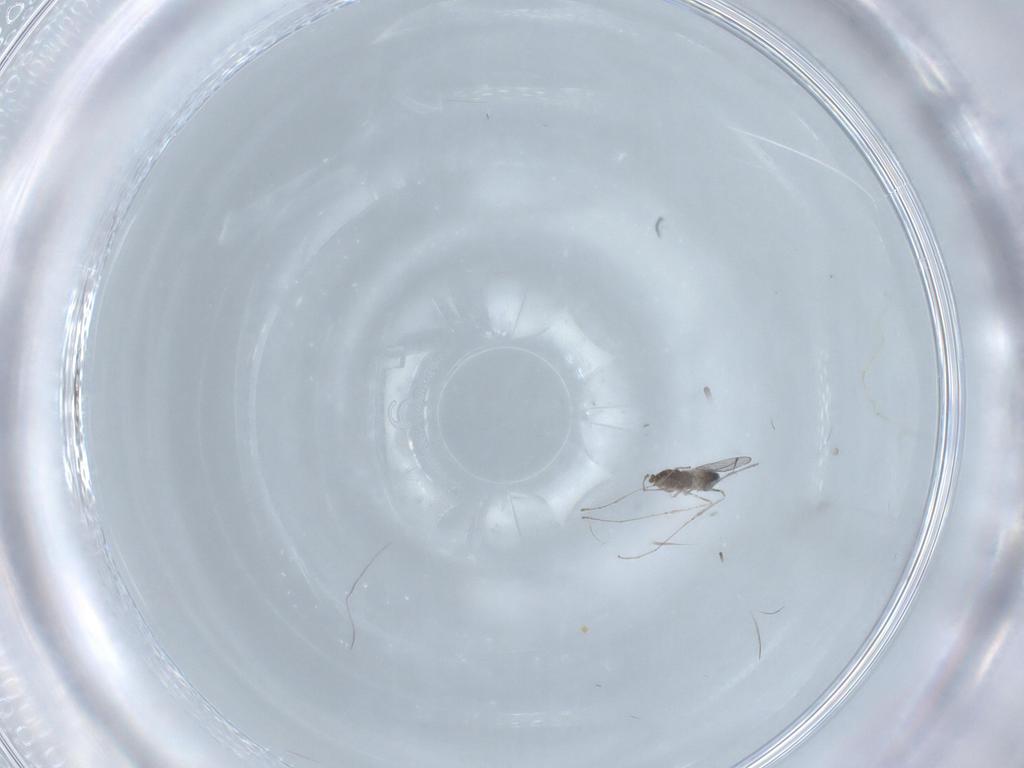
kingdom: Animalia
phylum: Arthropoda
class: Insecta
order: Diptera
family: Cecidomyiidae
